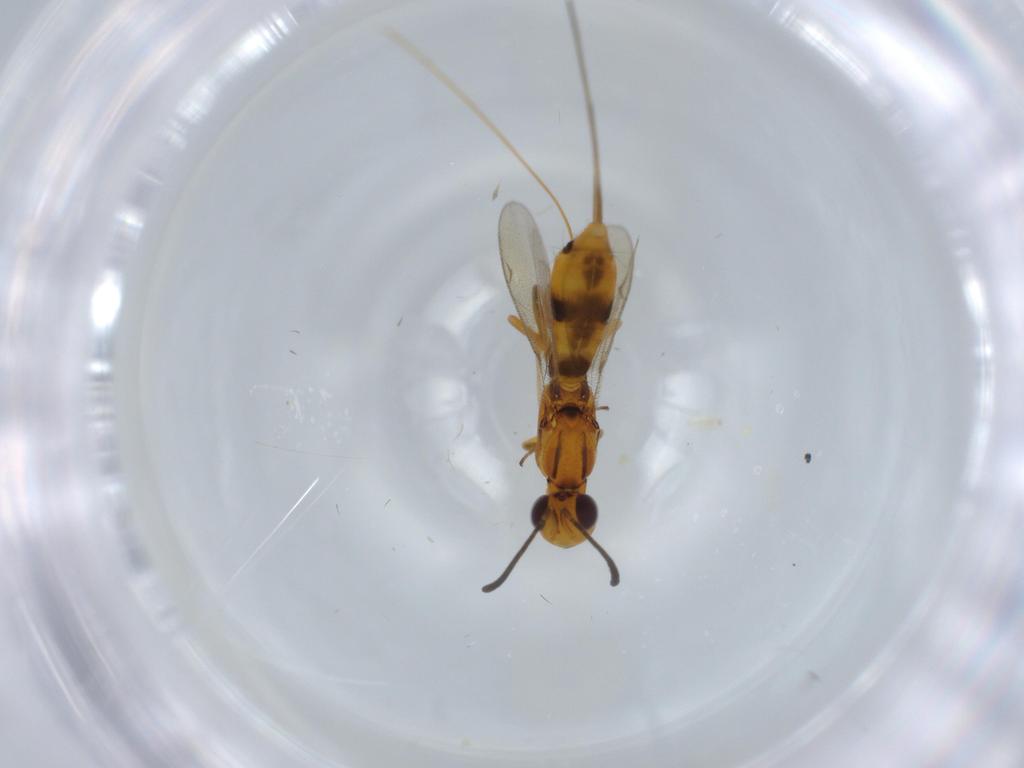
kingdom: Animalia
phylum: Arthropoda
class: Insecta
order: Hymenoptera
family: Eupelmidae
